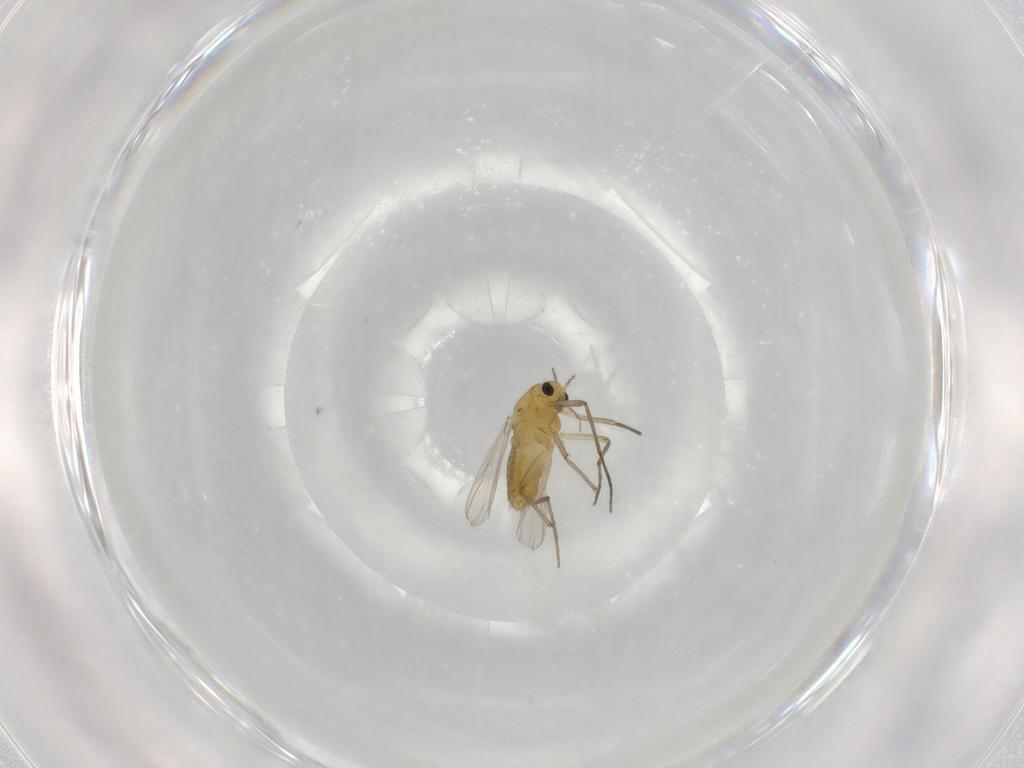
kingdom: Animalia
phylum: Arthropoda
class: Insecta
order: Diptera
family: Chironomidae
